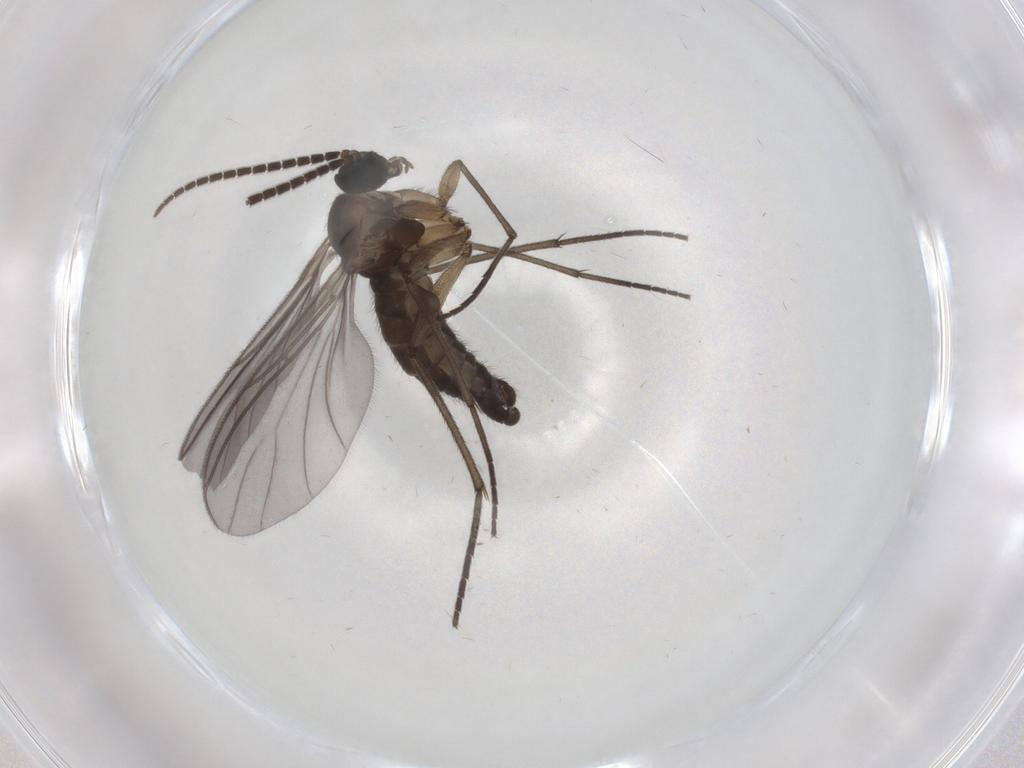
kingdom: Animalia
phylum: Arthropoda
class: Insecta
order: Diptera
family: Sciaridae
